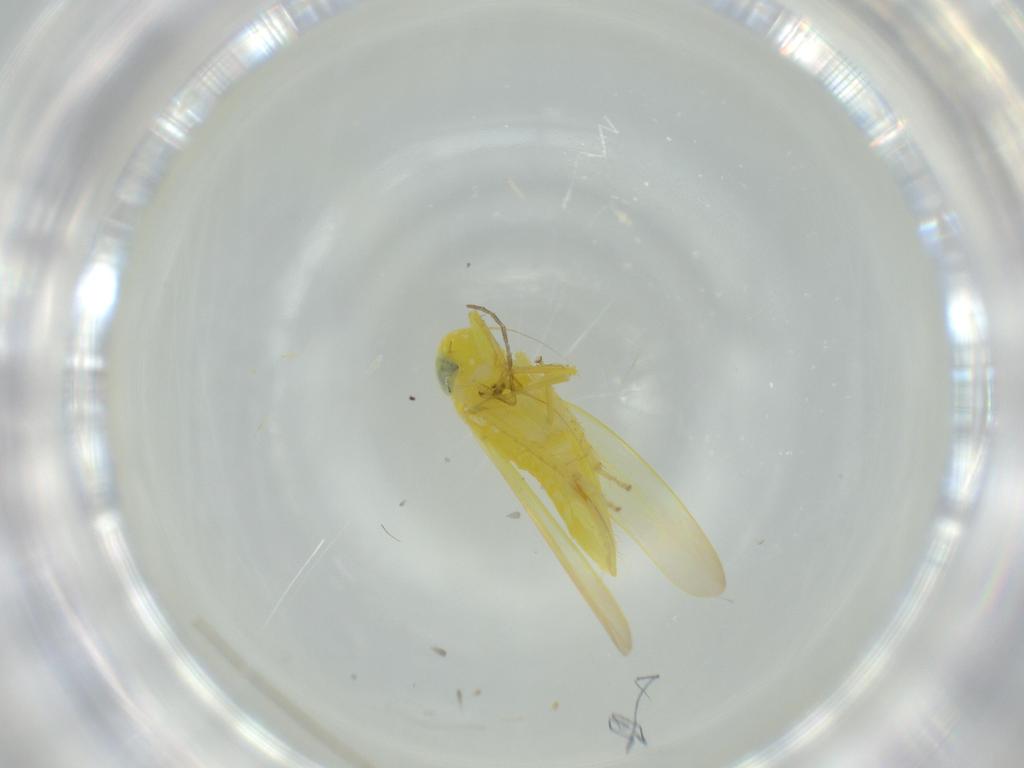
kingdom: Animalia
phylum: Arthropoda
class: Insecta
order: Hemiptera
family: Cicadellidae
